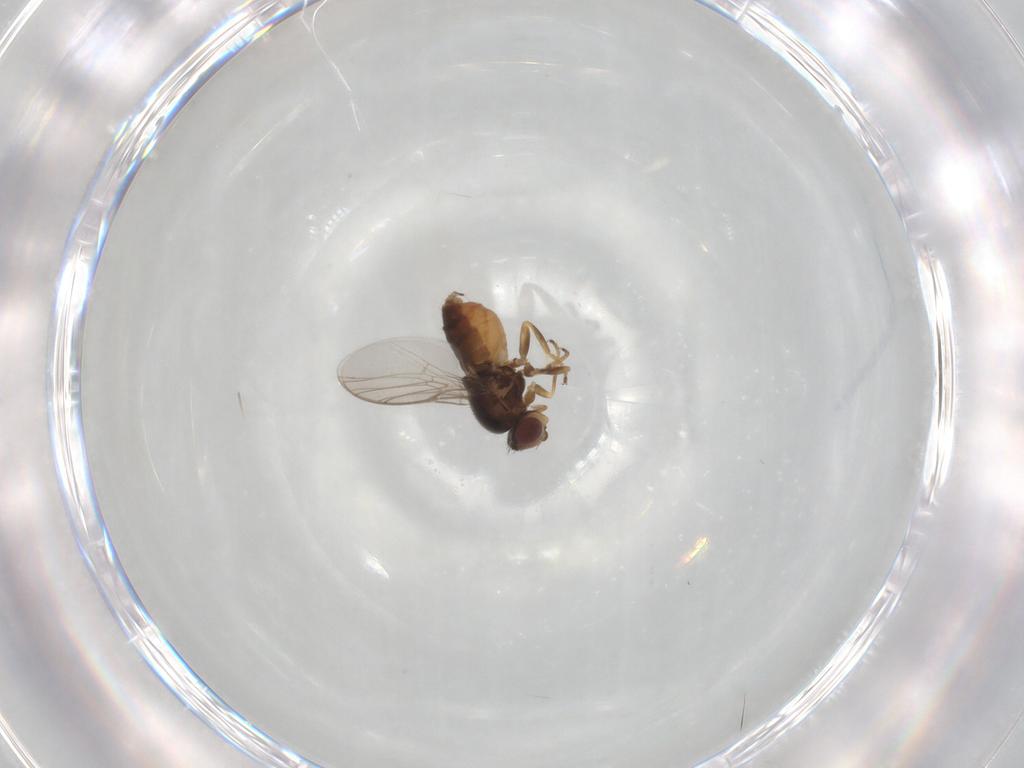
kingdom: Animalia
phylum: Arthropoda
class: Insecta
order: Diptera
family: Chloropidae
